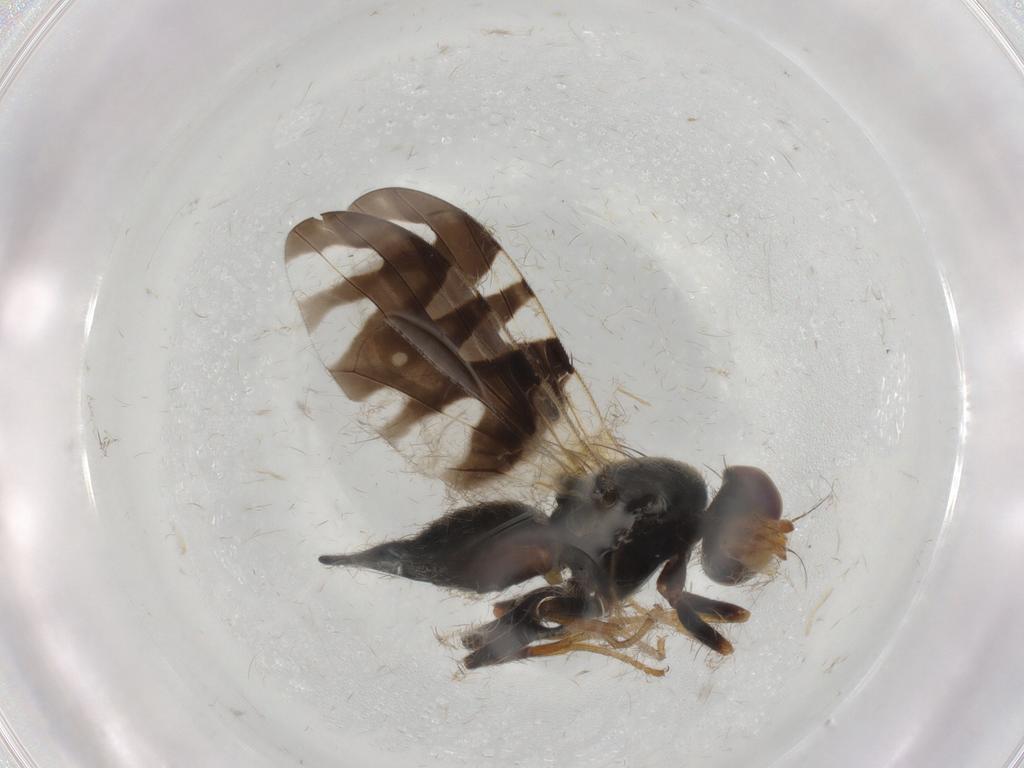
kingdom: Animalia
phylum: Arthropoda
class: Insecta
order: Diptera
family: Tephritidae
